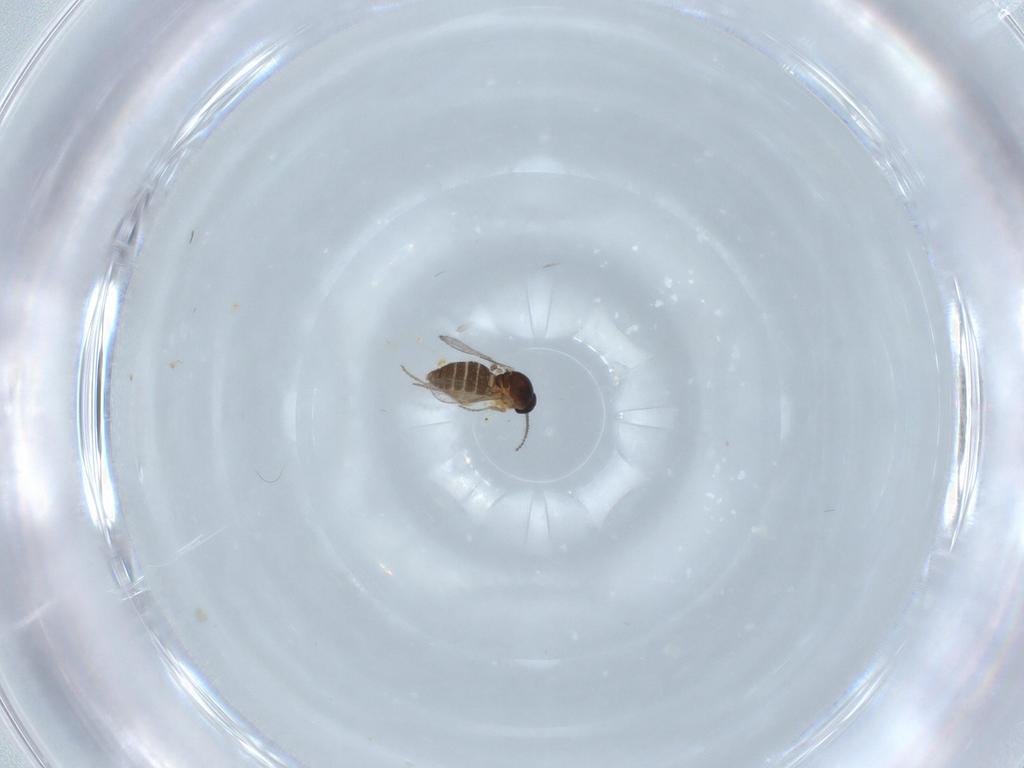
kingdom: Animalia
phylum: Arthropoda
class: Insecta
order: Diptera
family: Ceratopogonidae
